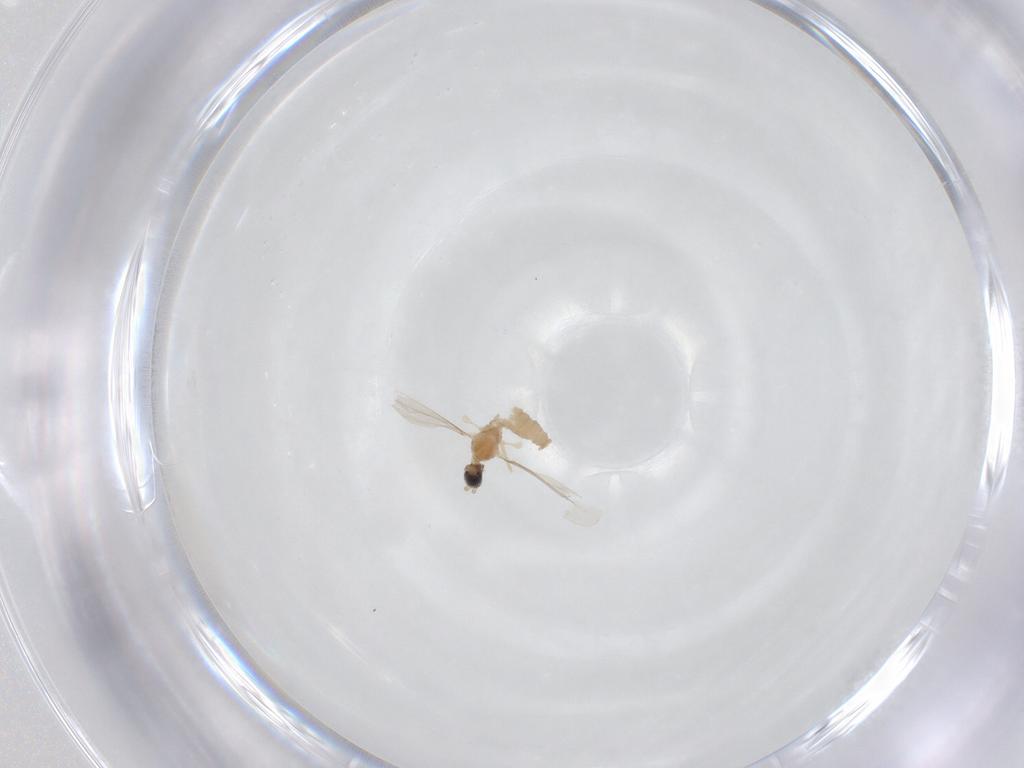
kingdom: Animalia
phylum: Arthropoda
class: Insecta
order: Diptera
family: Cecidomyiidae
